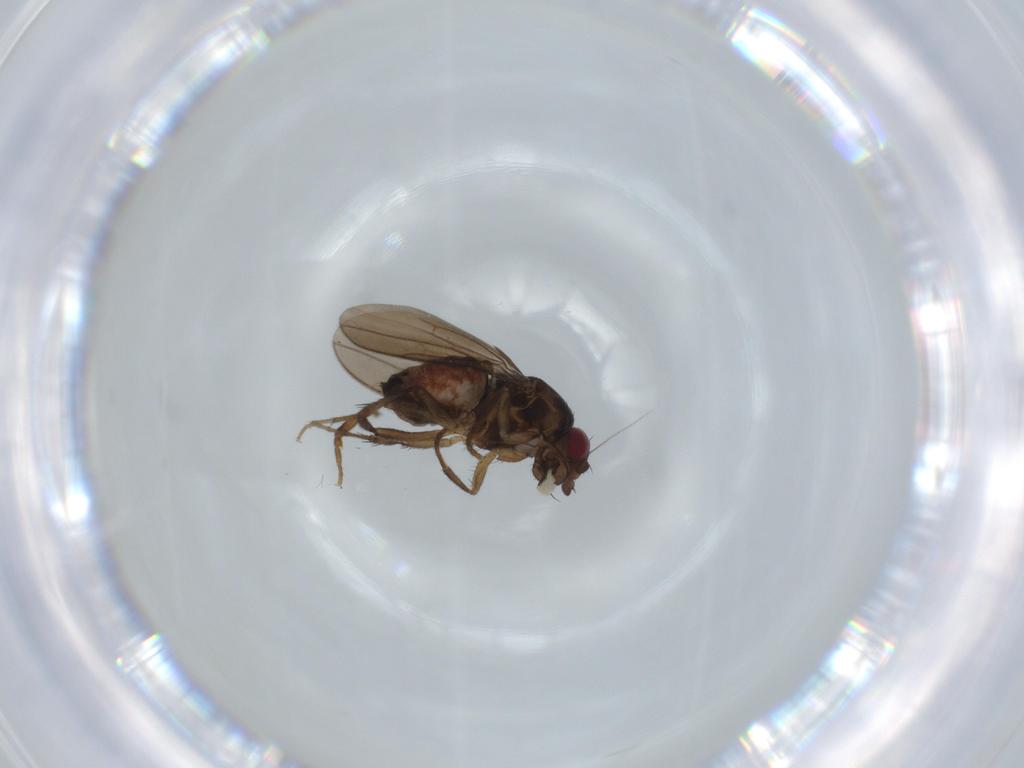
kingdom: Animalia
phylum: Arthropoda
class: Insecta
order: Diptera
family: Sphaeroceridae
